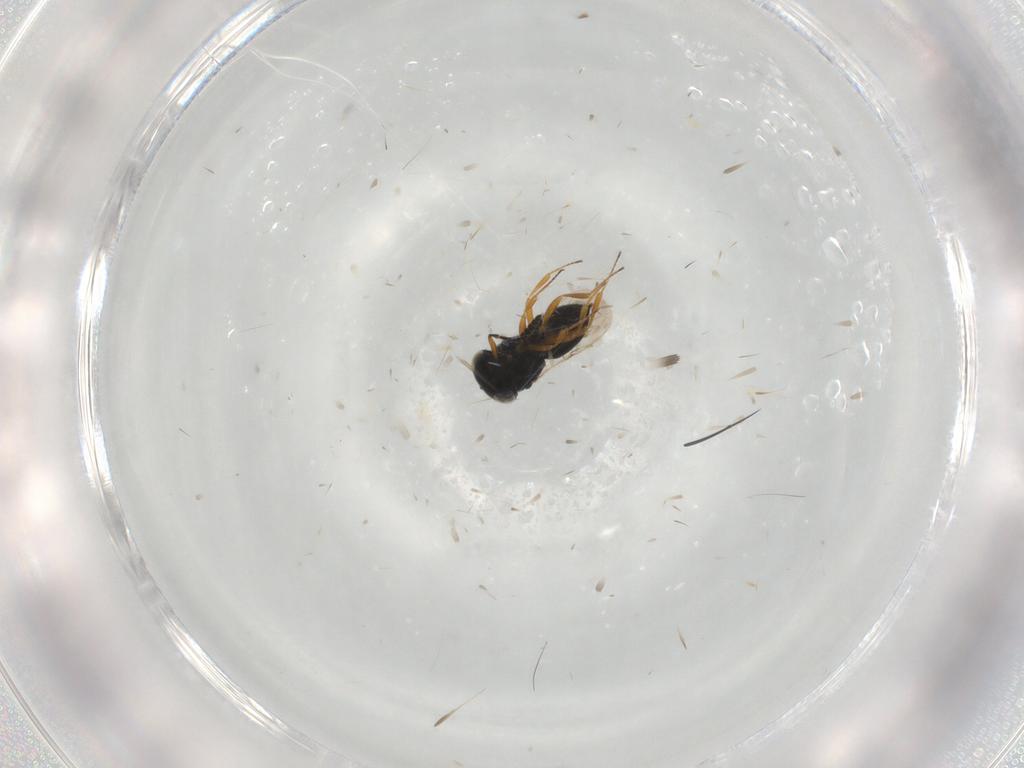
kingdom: Animalia
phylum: Arthropoda
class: Insecta
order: Hymenoptera
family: Scelionidae
